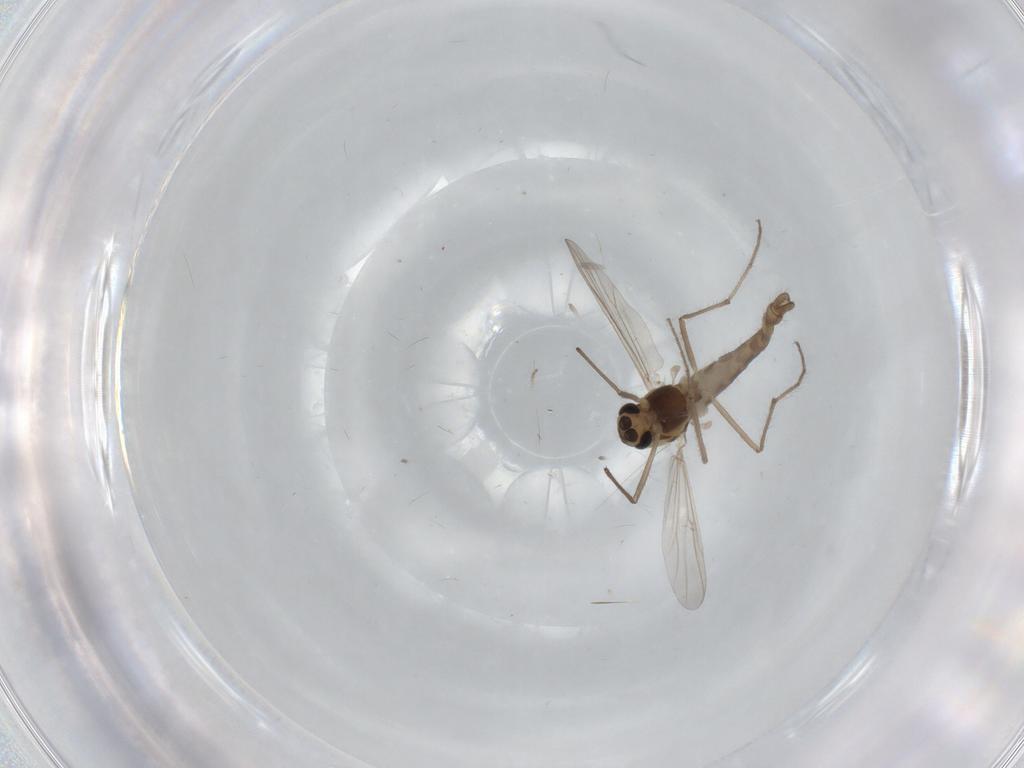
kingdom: Animalia
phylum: Arthropoda
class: Insecta
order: Diptera
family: Chironomidae
